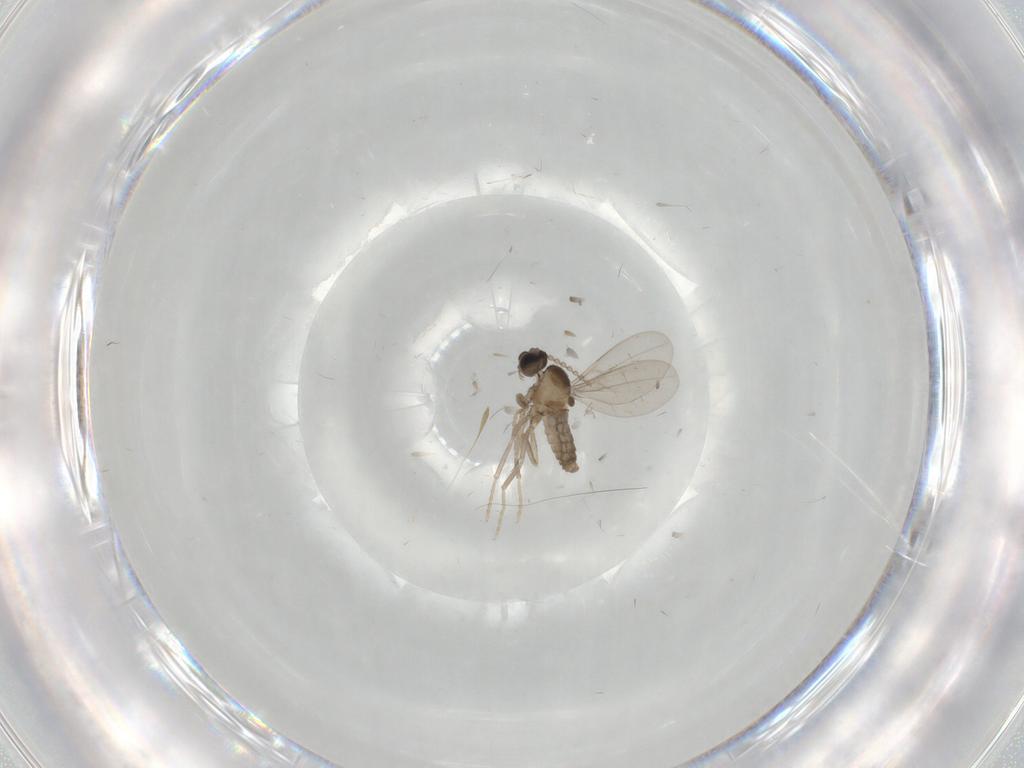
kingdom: Animalia
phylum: Arthropoda
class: Insecta
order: Diptera
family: Cecidomyiidae
